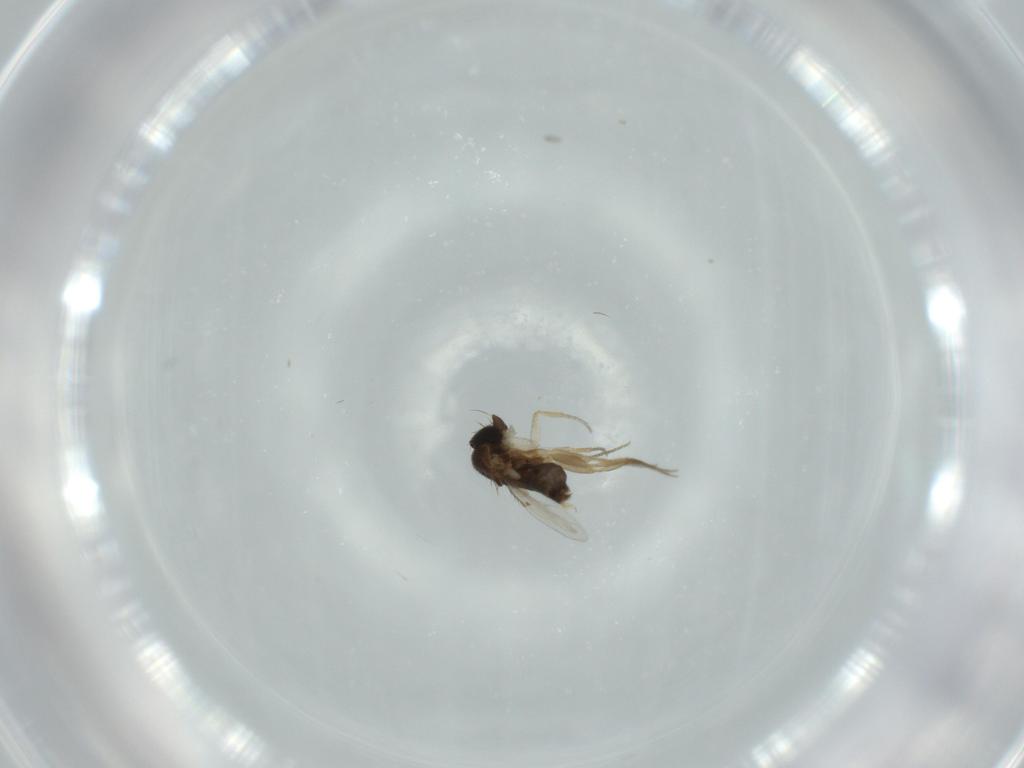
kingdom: Animalia
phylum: Arthropoda
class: Insecta
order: Diptera
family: Phoridae
